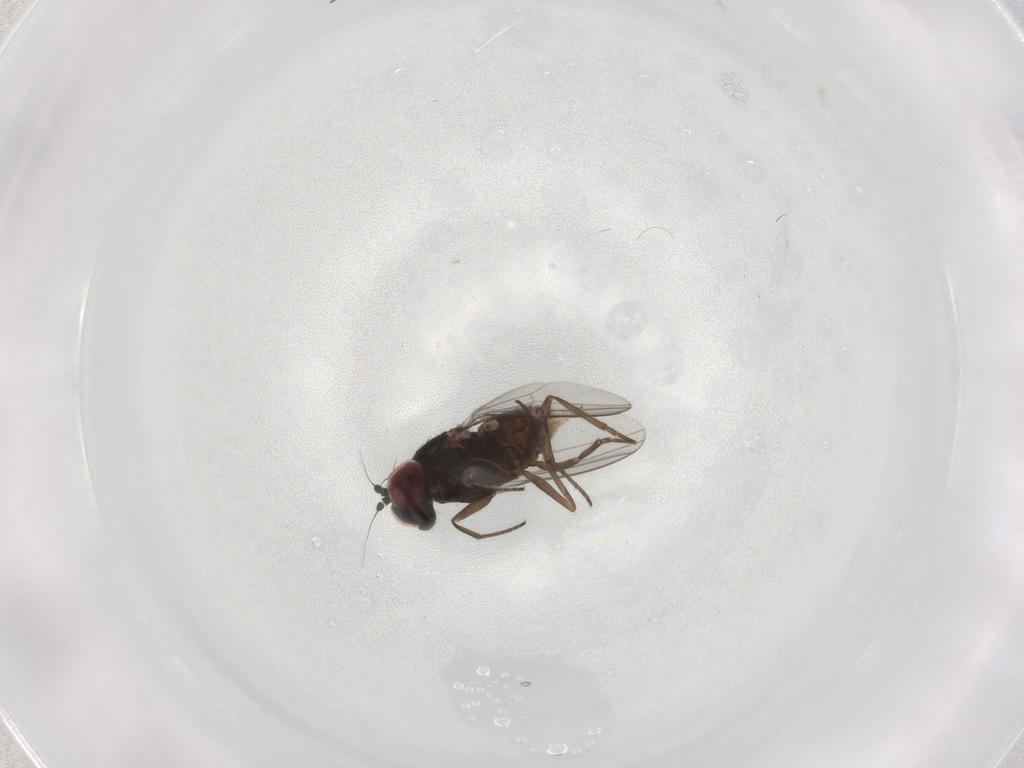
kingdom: Animalia
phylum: Arthropoda
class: Insecta
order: Diptera
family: Dolichopodidae
